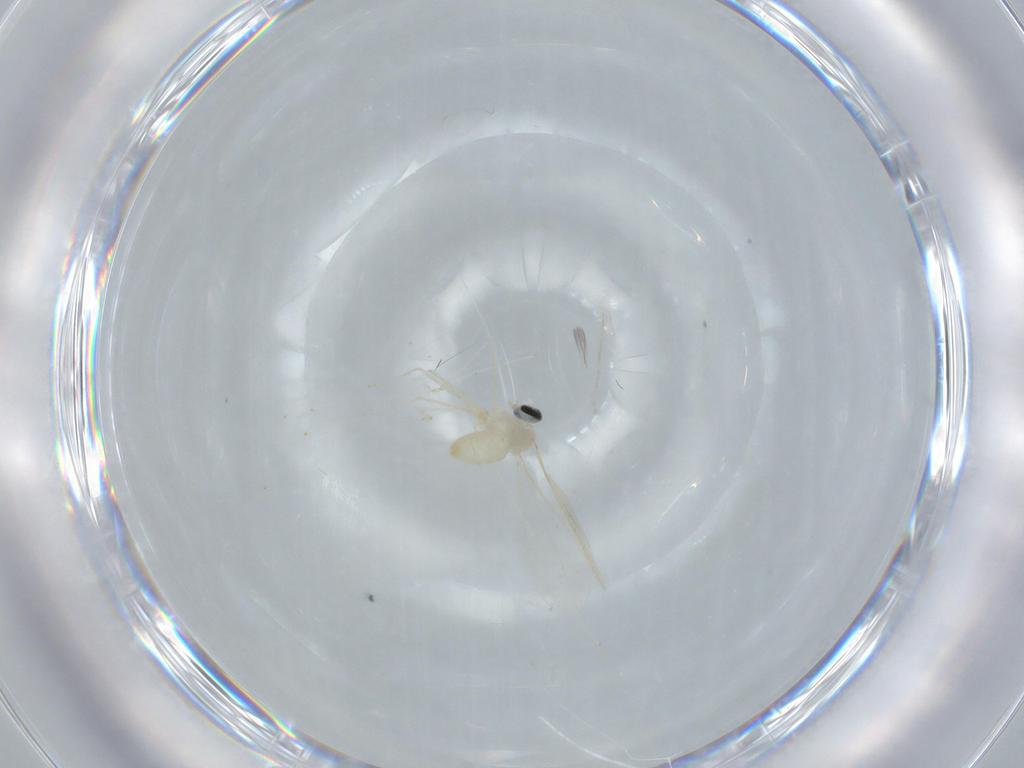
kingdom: Animalia
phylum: Arthropoda
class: Insecta
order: Diptera
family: Cecidomyiidae
